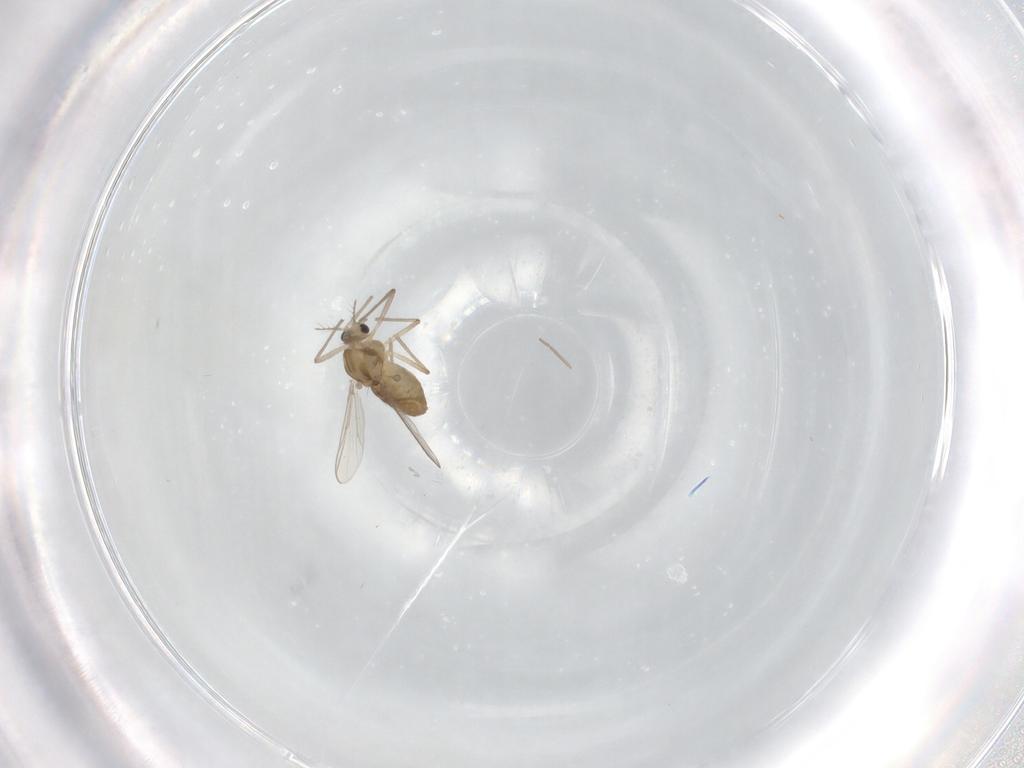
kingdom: Animalia
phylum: Arthropoda
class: Insecta
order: Diptera
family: Chironomidae
